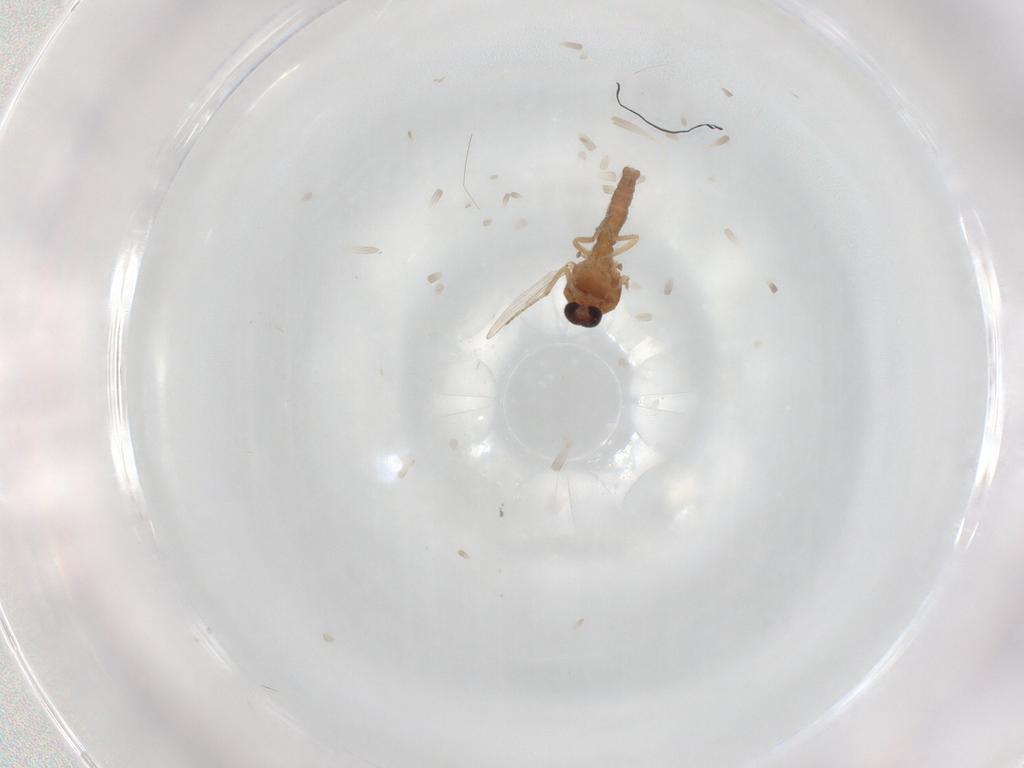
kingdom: Animalia
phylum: Arthropoda
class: Insecta
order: Diptera
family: Ceratopogonidae
